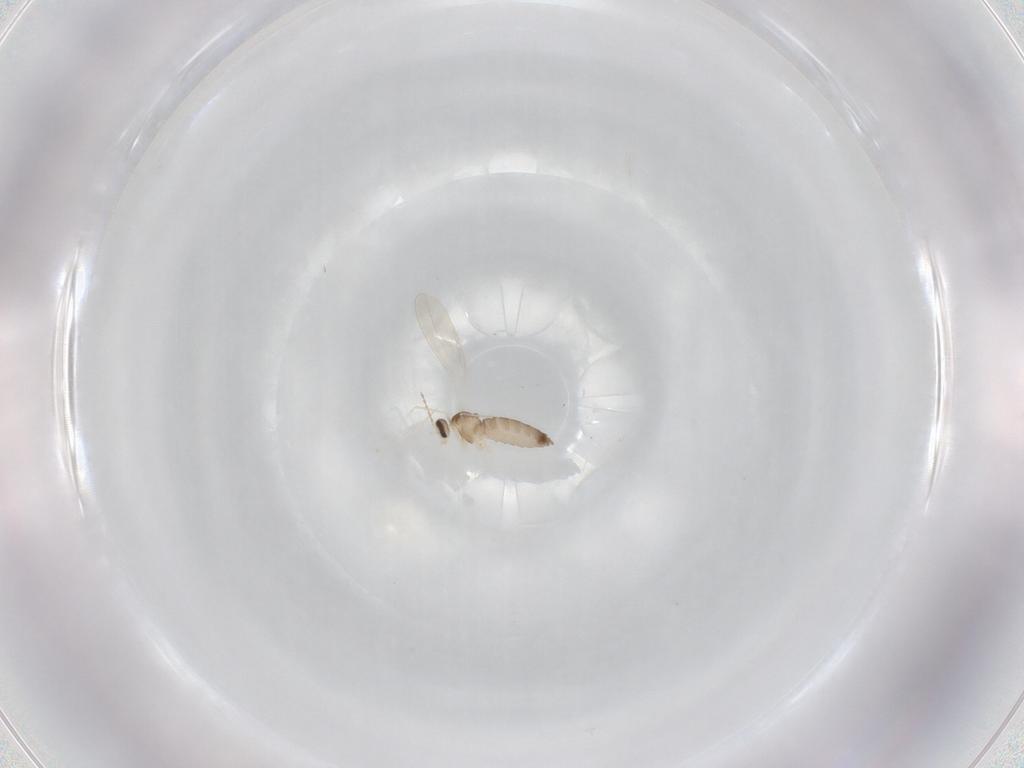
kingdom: Animalia
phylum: Arthropoda
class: Insecta
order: Diptera
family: Cecidomyiidae
